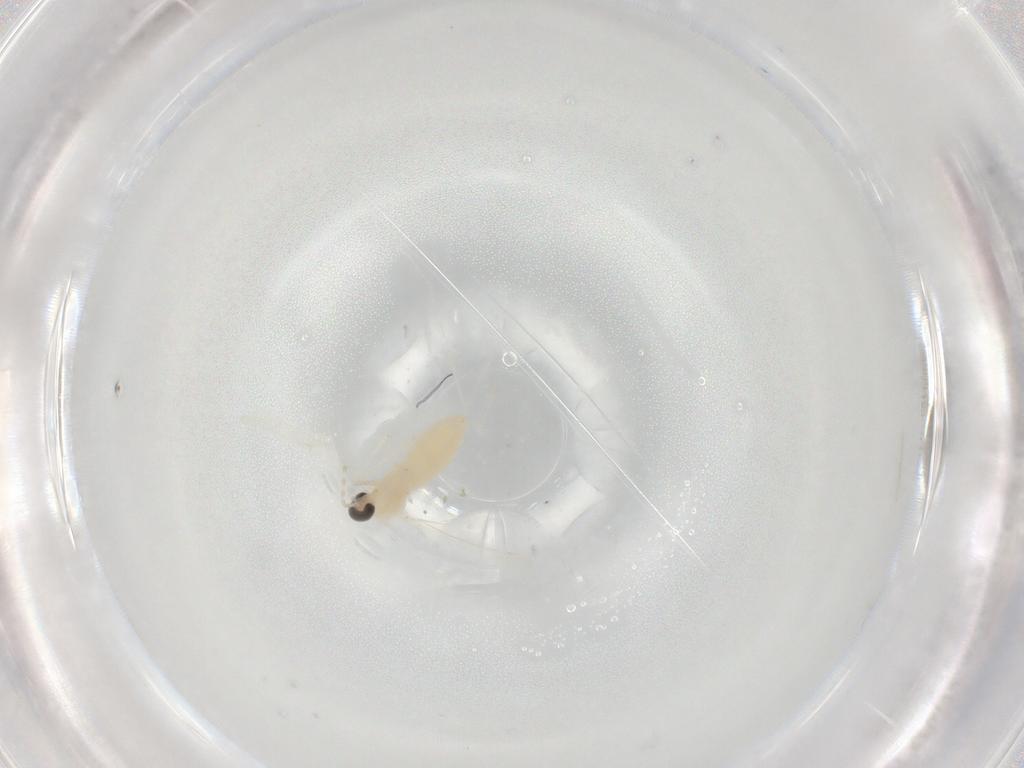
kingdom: Animalia
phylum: Arthropoda
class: Insecta
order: Diptera
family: Cecidomyiidae
